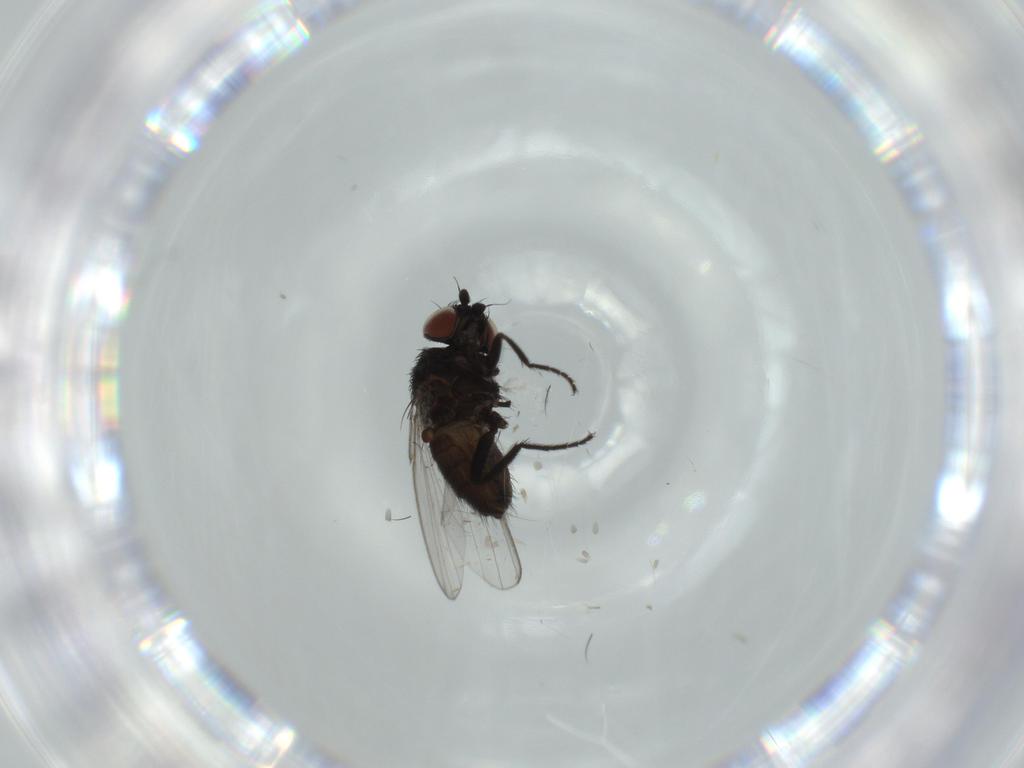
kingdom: Animalia
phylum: Arthropoda
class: Insecta
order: Diptera
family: Milichiidae
